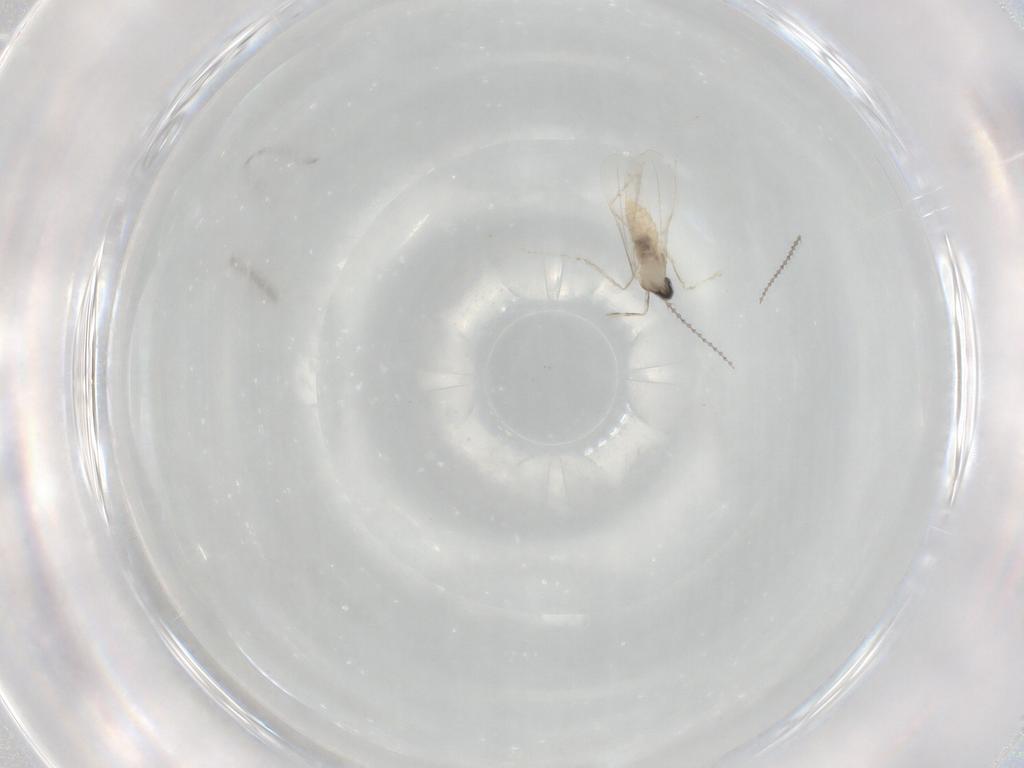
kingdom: Animalia
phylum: Arthropoda
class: Insecta
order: Diptera
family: Cecidomyiidae
